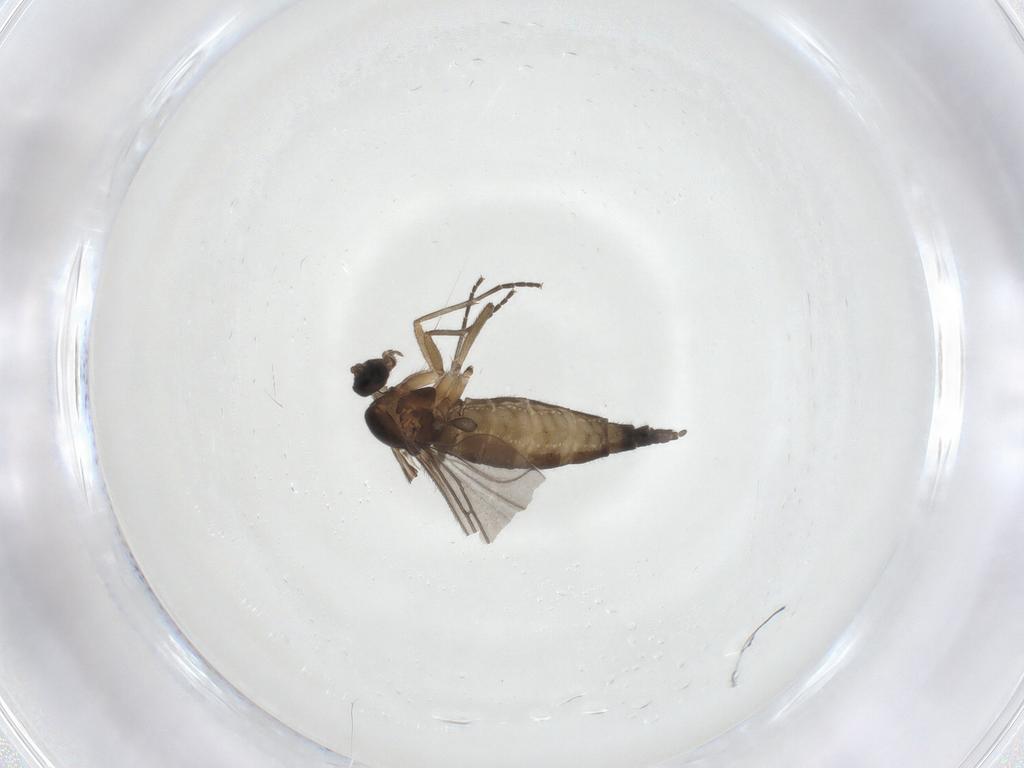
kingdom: Animalia
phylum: Arthropoda
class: Insecta
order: Diptera
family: Sciaridae
